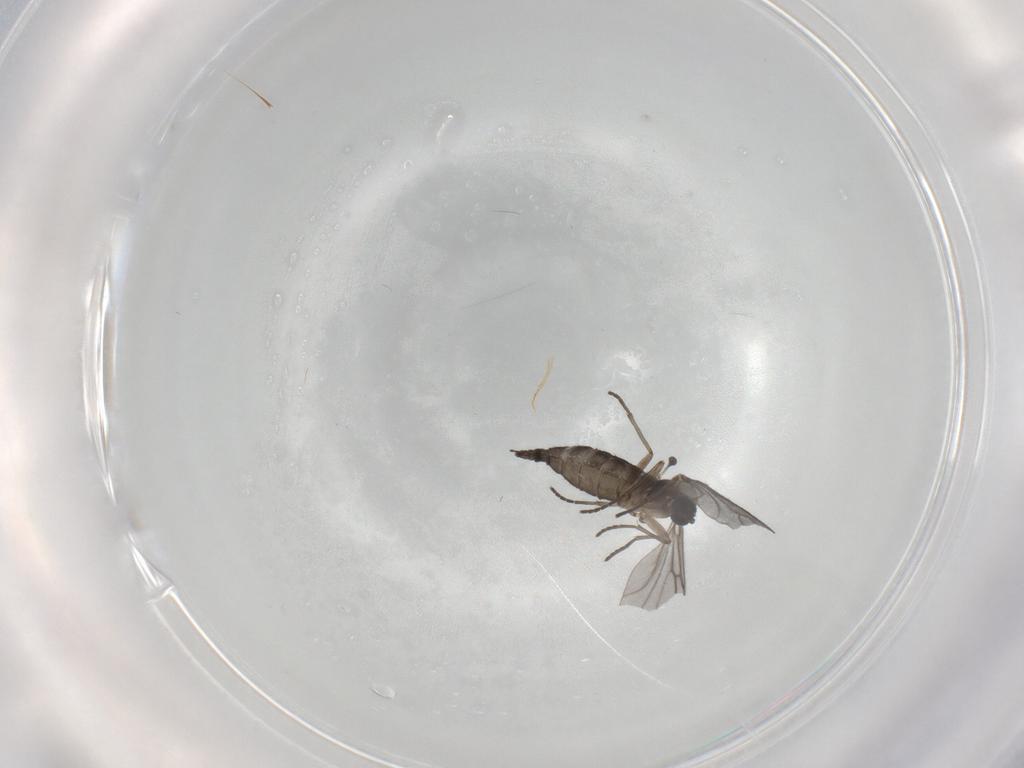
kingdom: Animalia
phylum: Arthropoda
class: Insecta
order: Diptera
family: Sciaridae
